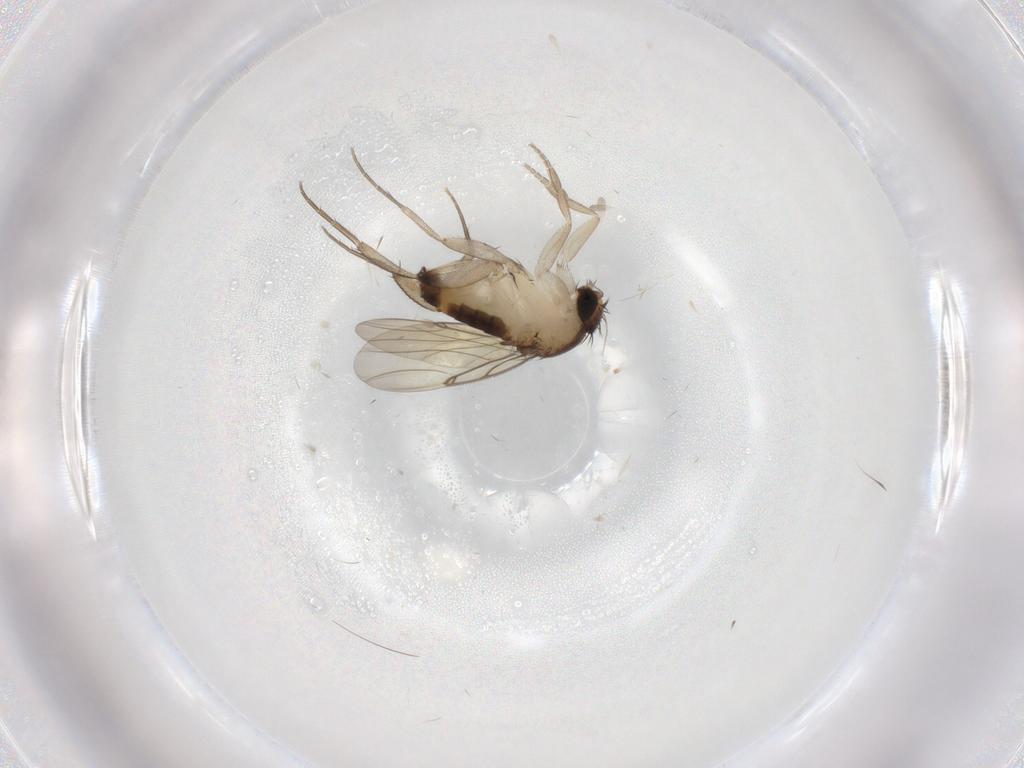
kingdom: Animalia
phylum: Arthropoda
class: Insecta
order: Diptera
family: Phoridae
